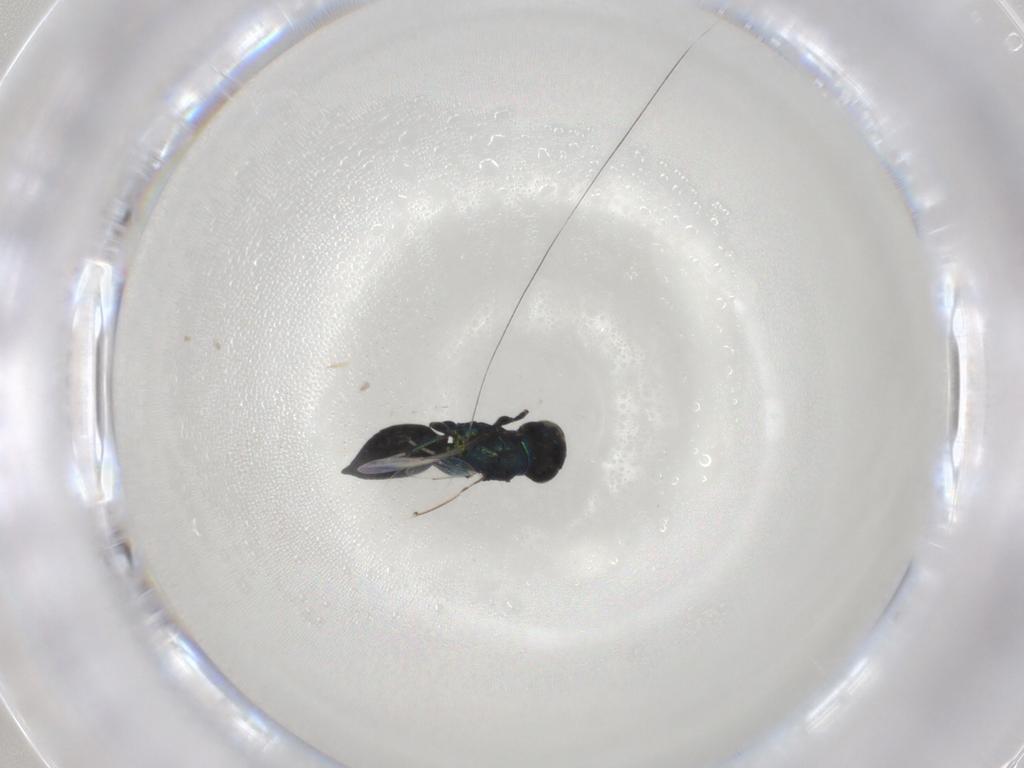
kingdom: Animalia
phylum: Arthropoda
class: Insecta
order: Hymenoptera
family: Eulophidae
